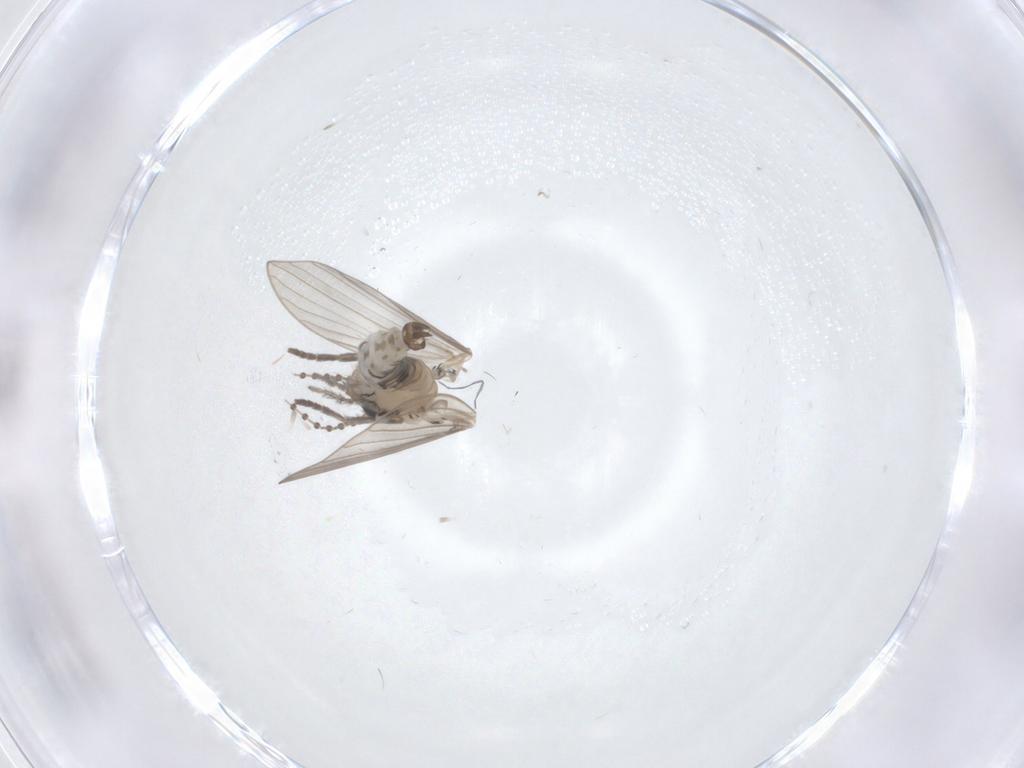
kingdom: Animalia
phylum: Arthropoda
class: Insecta
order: Diptera
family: Psychodidae
